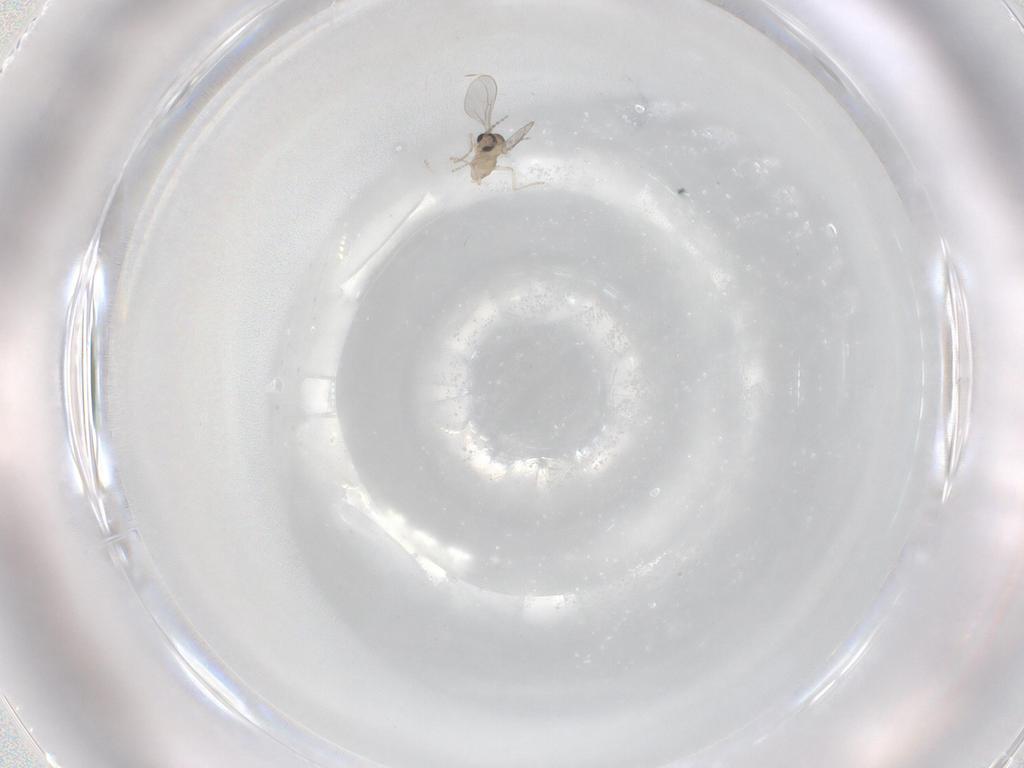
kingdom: Animalia
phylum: Arthropoda
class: Insecta
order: Diptera
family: Cecidomyiidae
